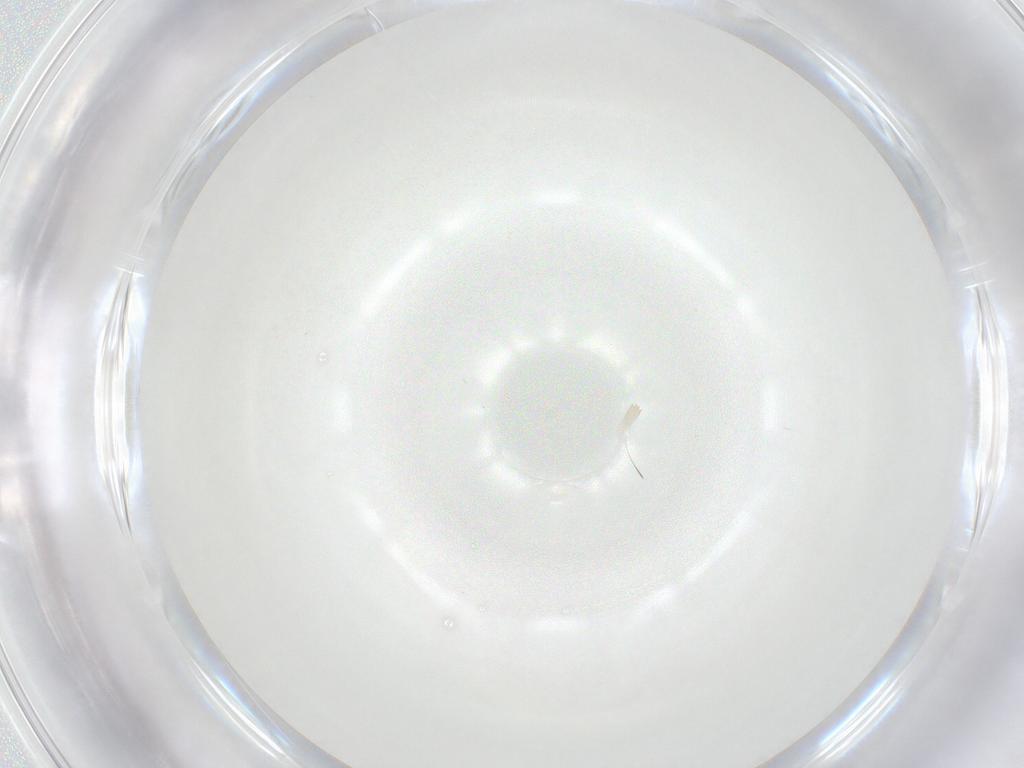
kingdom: Animalia
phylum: Arthropoda
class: Insecta
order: Diptera
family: Cecidomyiidae
